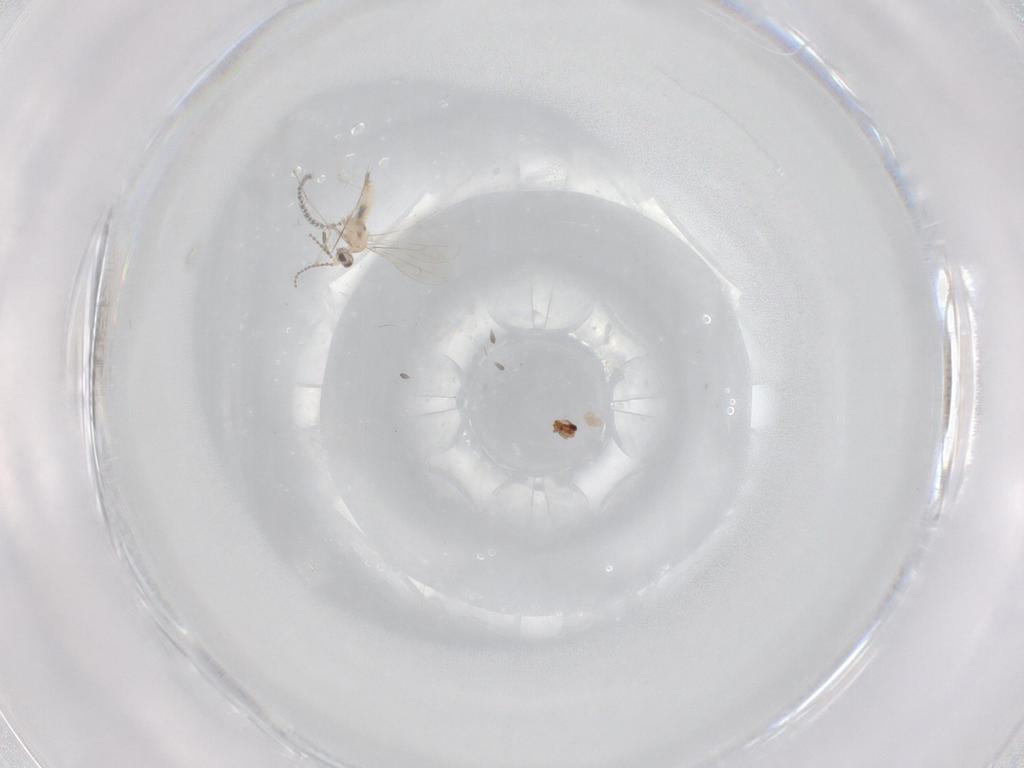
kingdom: Animalia
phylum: Arthropoda
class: Insecta
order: Diptera
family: Cecidomyiidae
